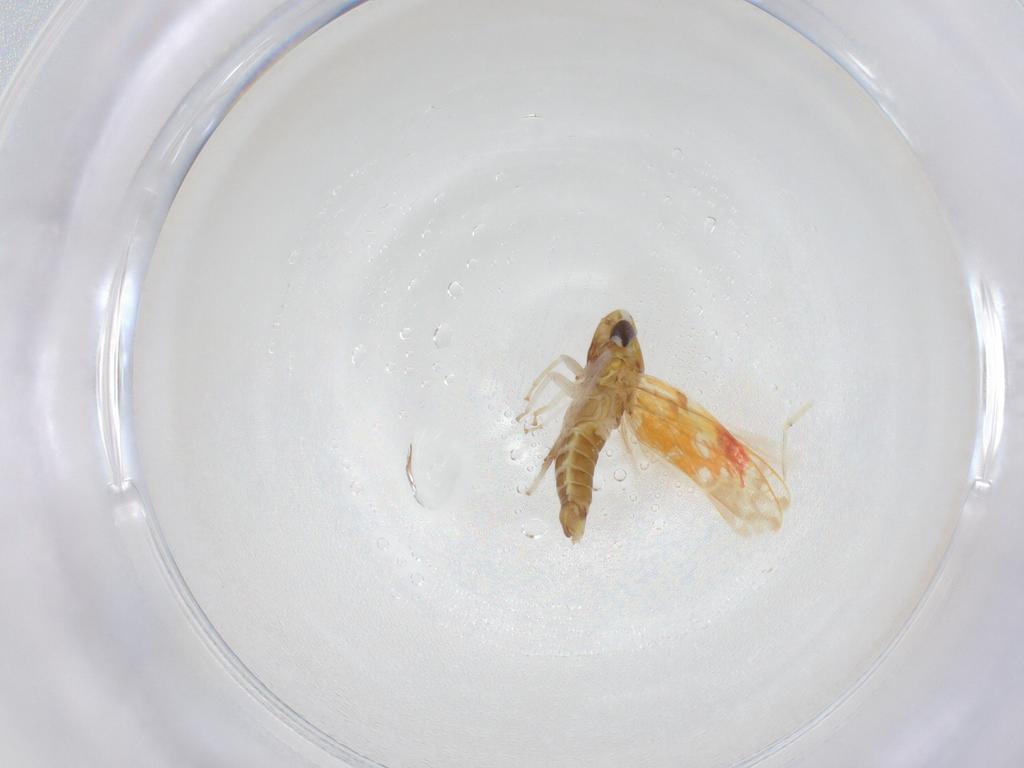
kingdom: Animalia
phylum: Arthropoda
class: Insecta
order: Hemiptera
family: Cicadellidae
